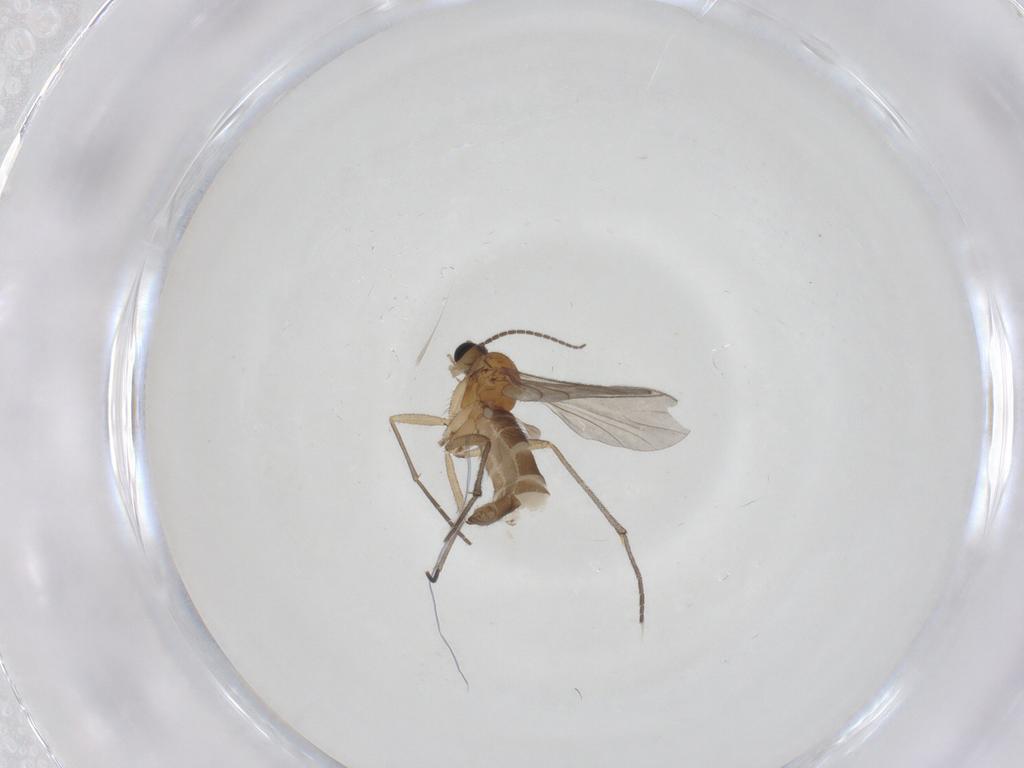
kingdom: Animalia
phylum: Arthropoda
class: Insecta
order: Diptera
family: Sciaridae
